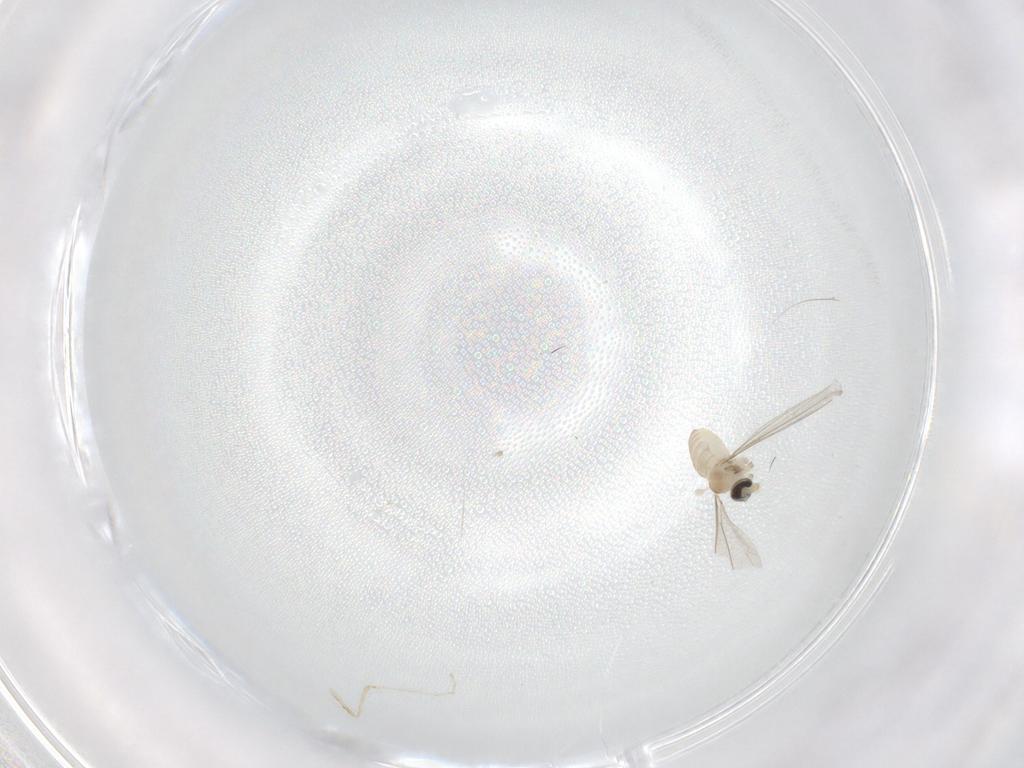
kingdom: Animalia
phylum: Arthropoda
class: Insecta
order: Diptera
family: Cecidomyiidae
